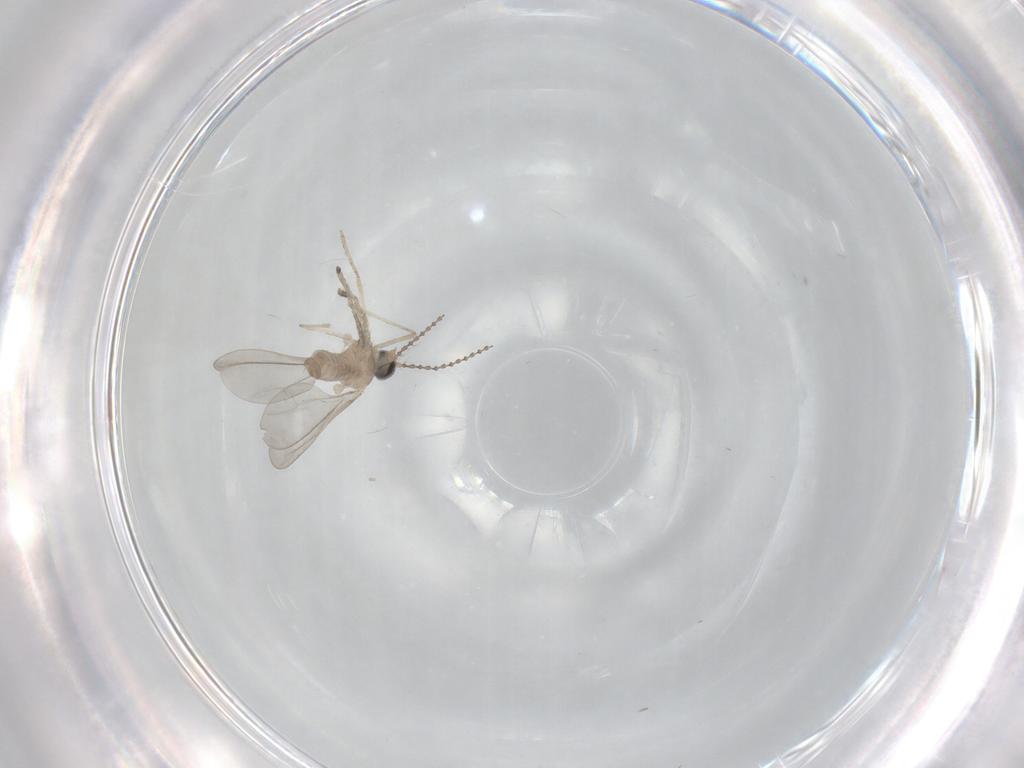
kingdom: Animalia
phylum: Arthropoda
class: Insecta
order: Diptera
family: Cecidomyiidae
